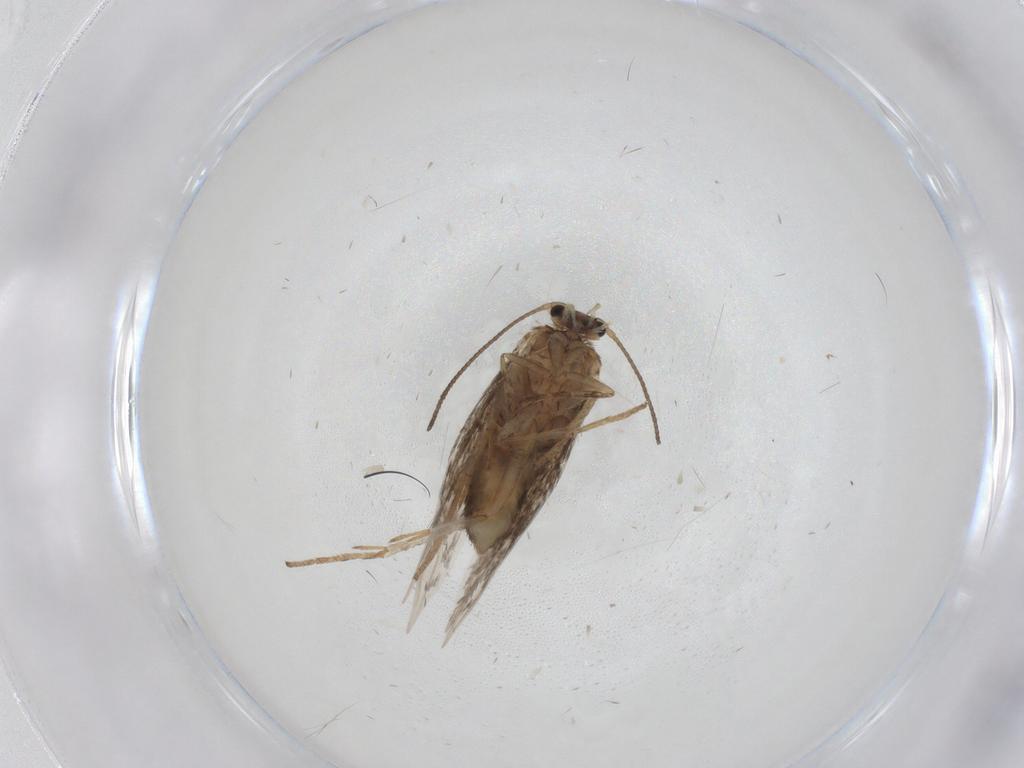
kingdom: Animalia
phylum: Arthropoda
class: Insecta
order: Lepidoptera
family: Nepticulidae
